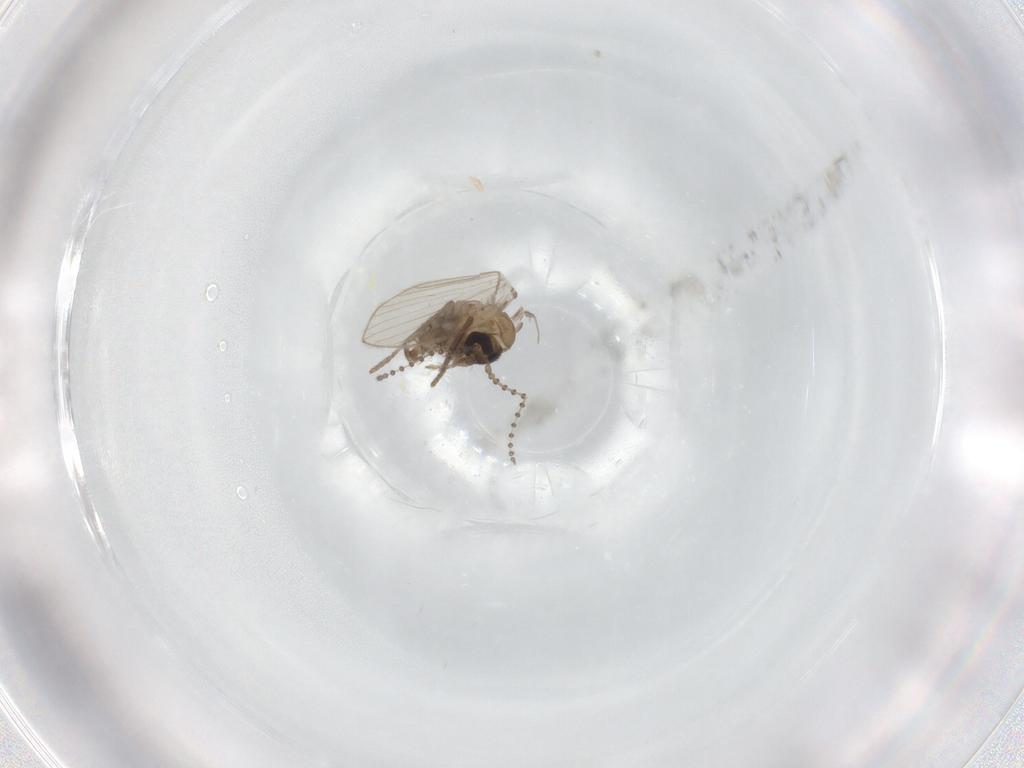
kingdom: Animalia
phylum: Arthropoda
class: Insecta
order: Diptera
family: Sciaridae
